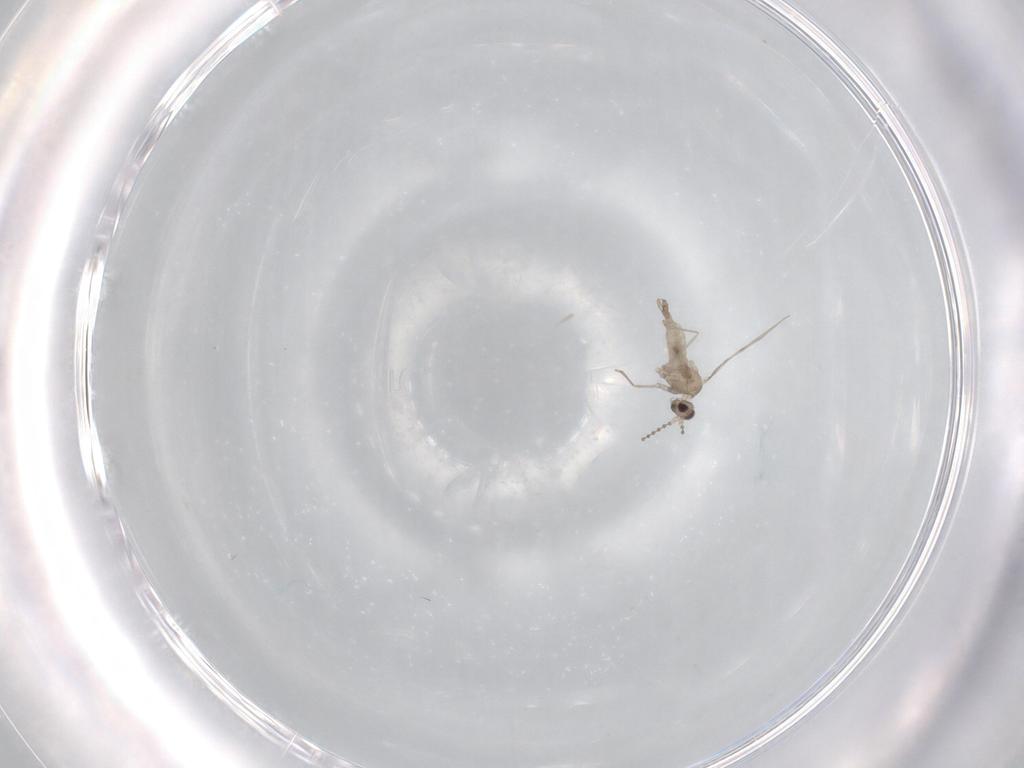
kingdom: Animalia
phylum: Arthropoda
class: Insecta
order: Diptera
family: Cecidomyiidae
